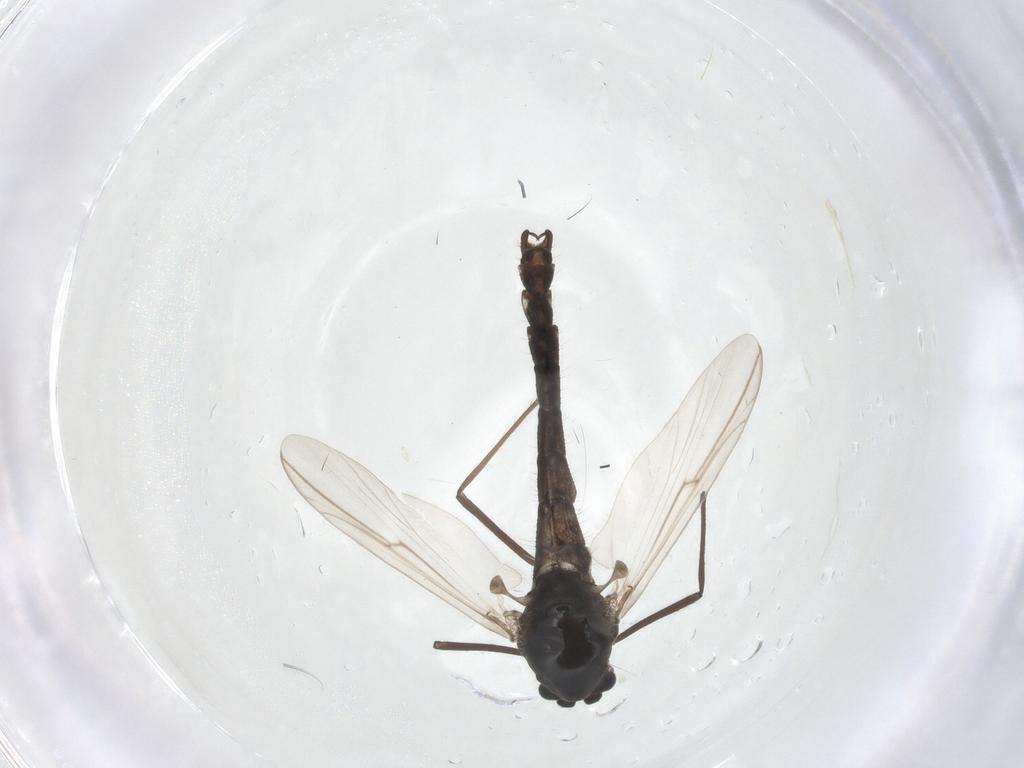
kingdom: Animalia
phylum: Arthropoda
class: Insecta
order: Diptera
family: Chironomidae
